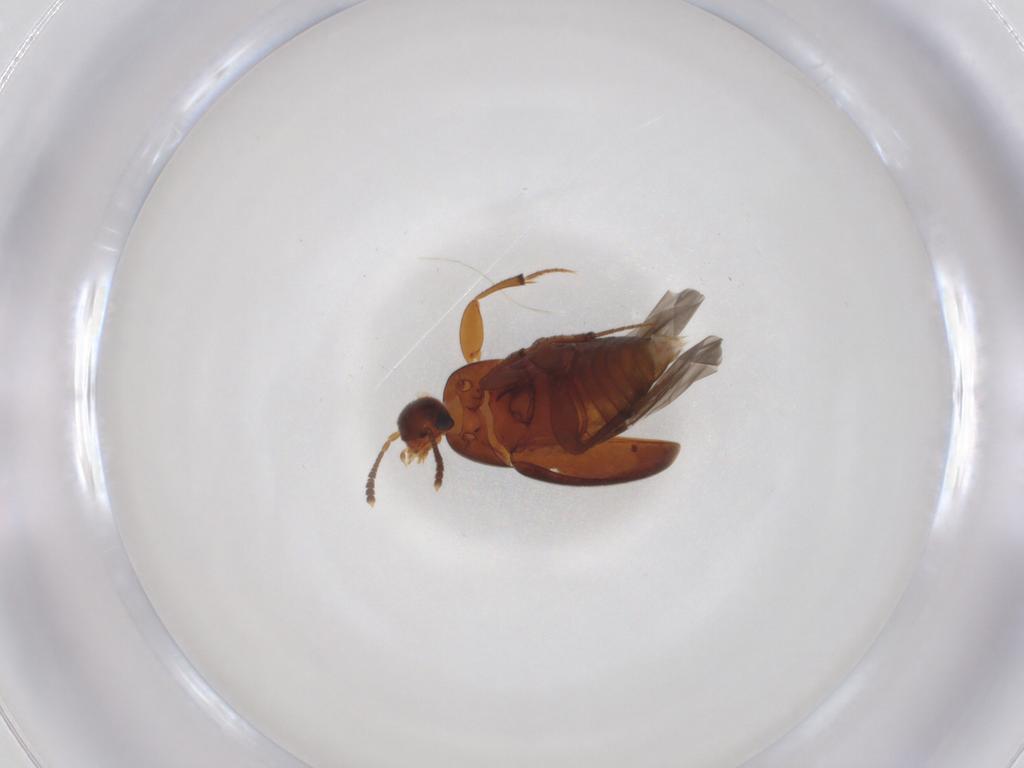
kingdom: Animalia
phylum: Arthropoda
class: Insecta
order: Coleoptera
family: Leiodidae
